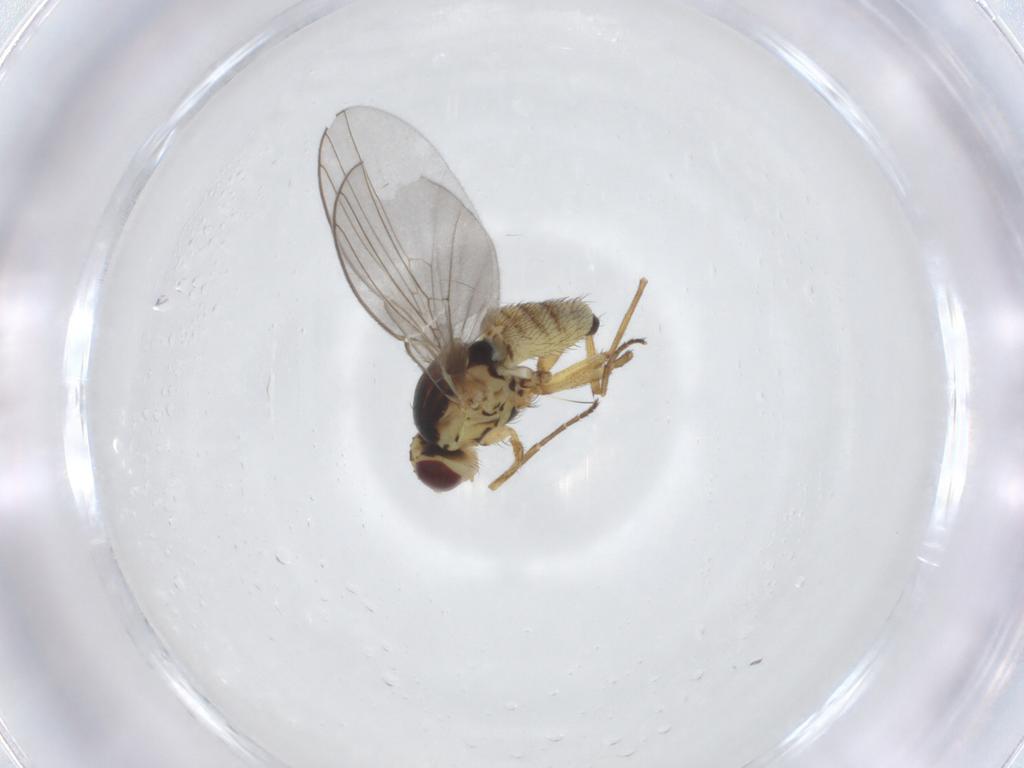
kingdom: Animalia
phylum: Arthropoda
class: Insecta
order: Diptera
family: Agromyzidae
